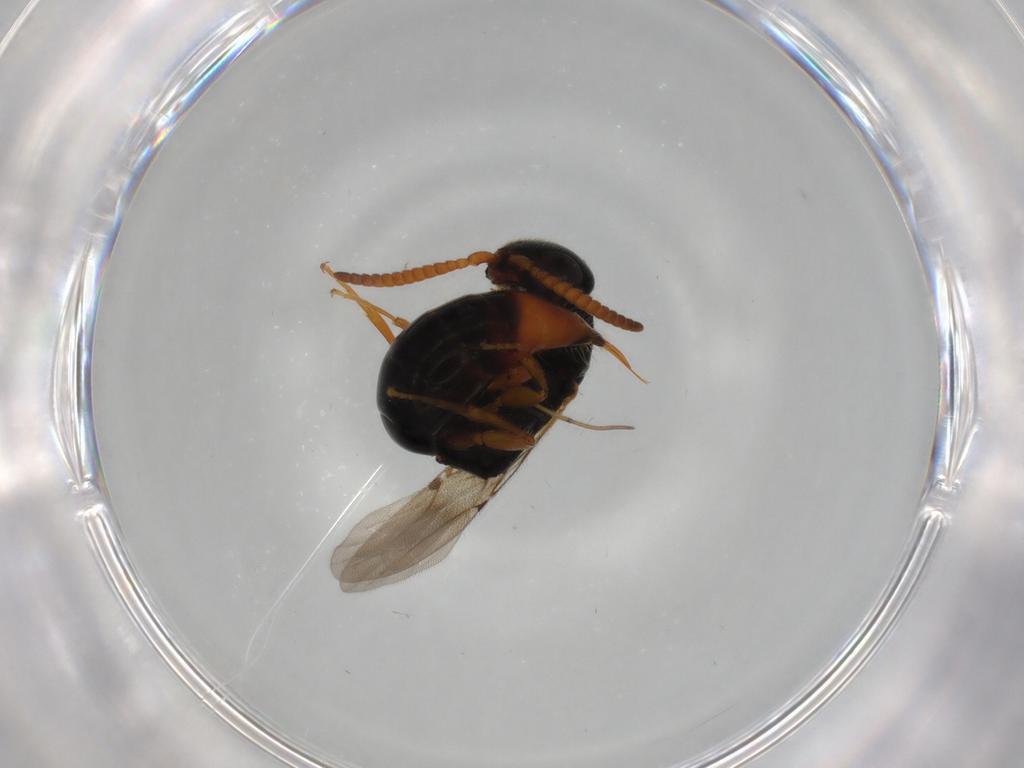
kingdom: Animalia
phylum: Arthropoda
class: Insecta
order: Hymenoptera
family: Bethylidae
